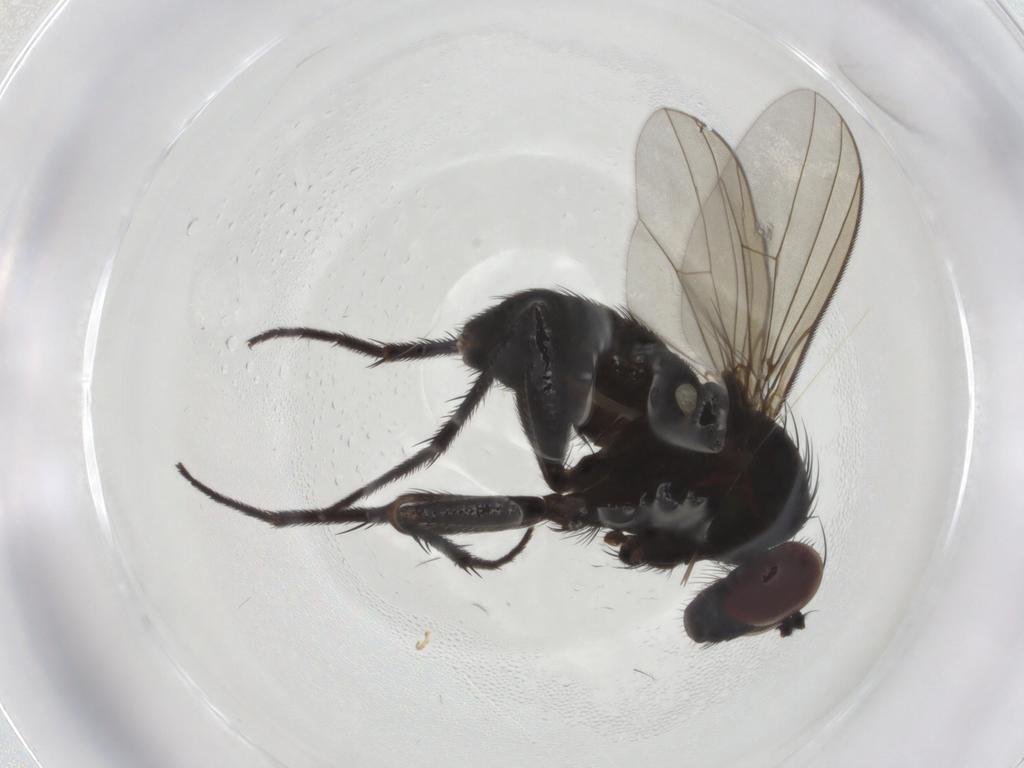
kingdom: Animalia
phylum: Arthropoda
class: Insecta
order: Diptera
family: Dolichopodidae
